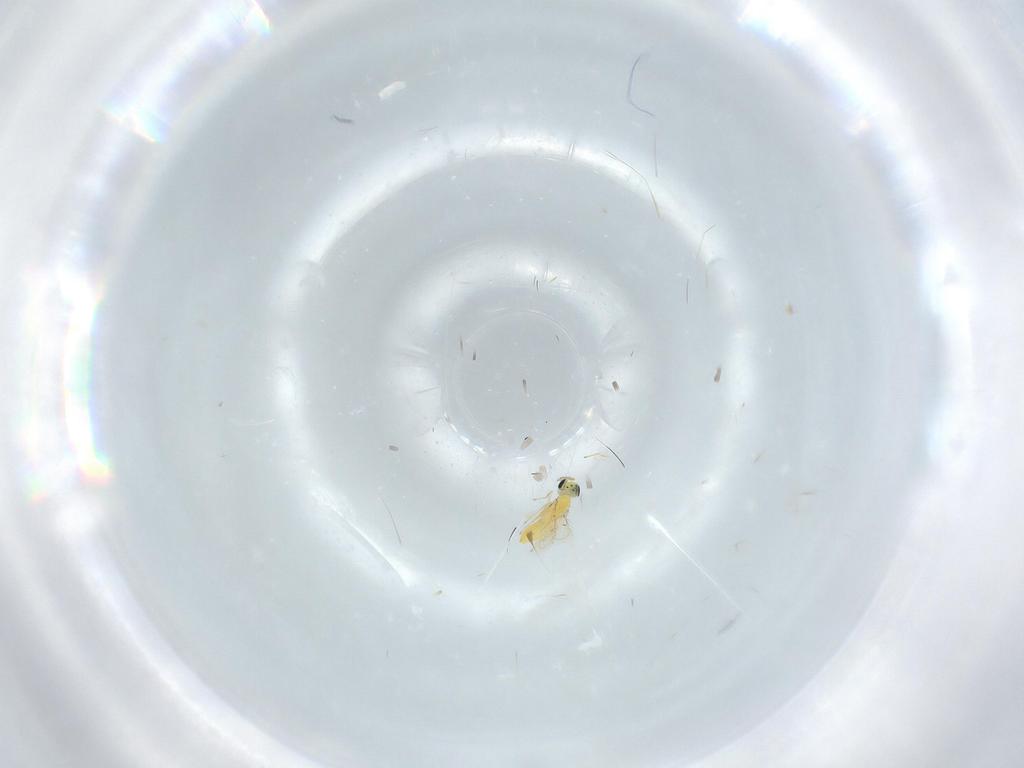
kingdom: Animalia
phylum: Arthropoda
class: Insecta
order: Hymenoptera
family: Trichogrammatidae
